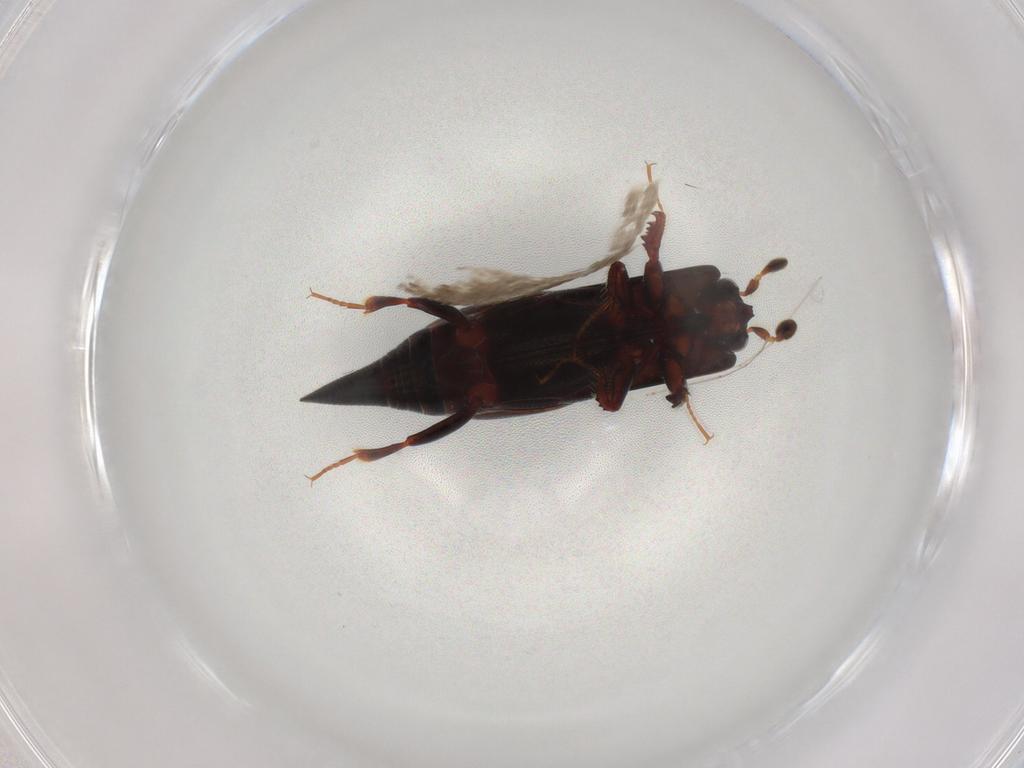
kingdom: Animalia
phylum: Arthropoda
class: Insecta
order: Coleoptera
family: Histeridae
